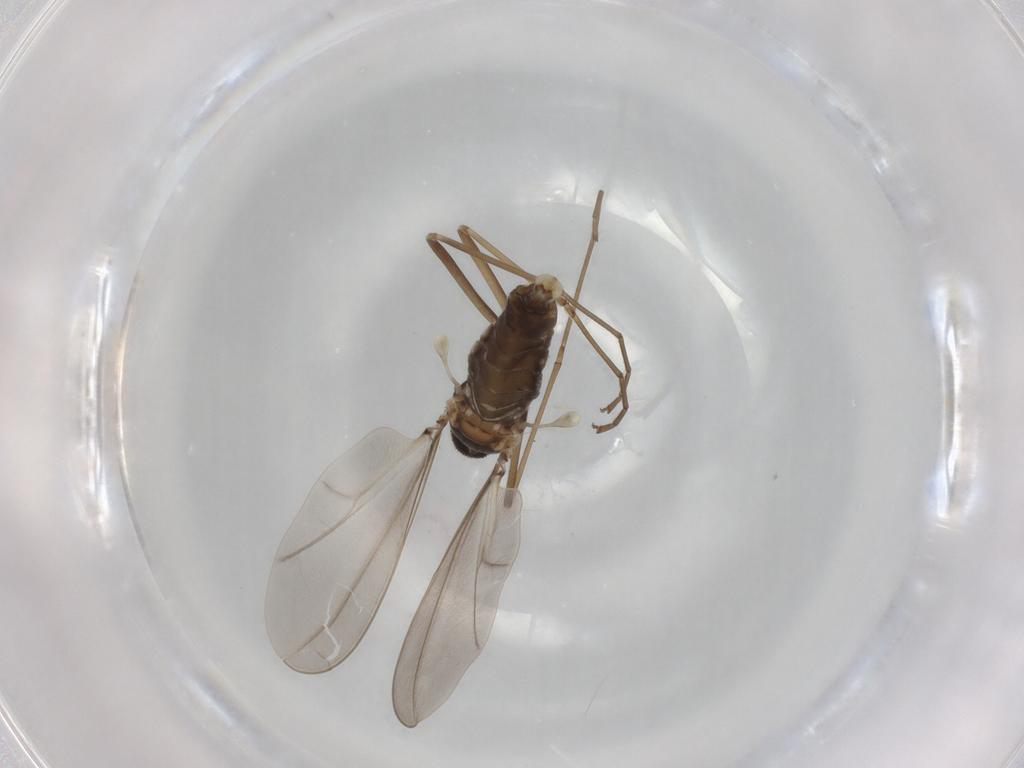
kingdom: Animalia
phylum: Arthropoda
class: Insecta
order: Diptera
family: Cecidomyiidae
